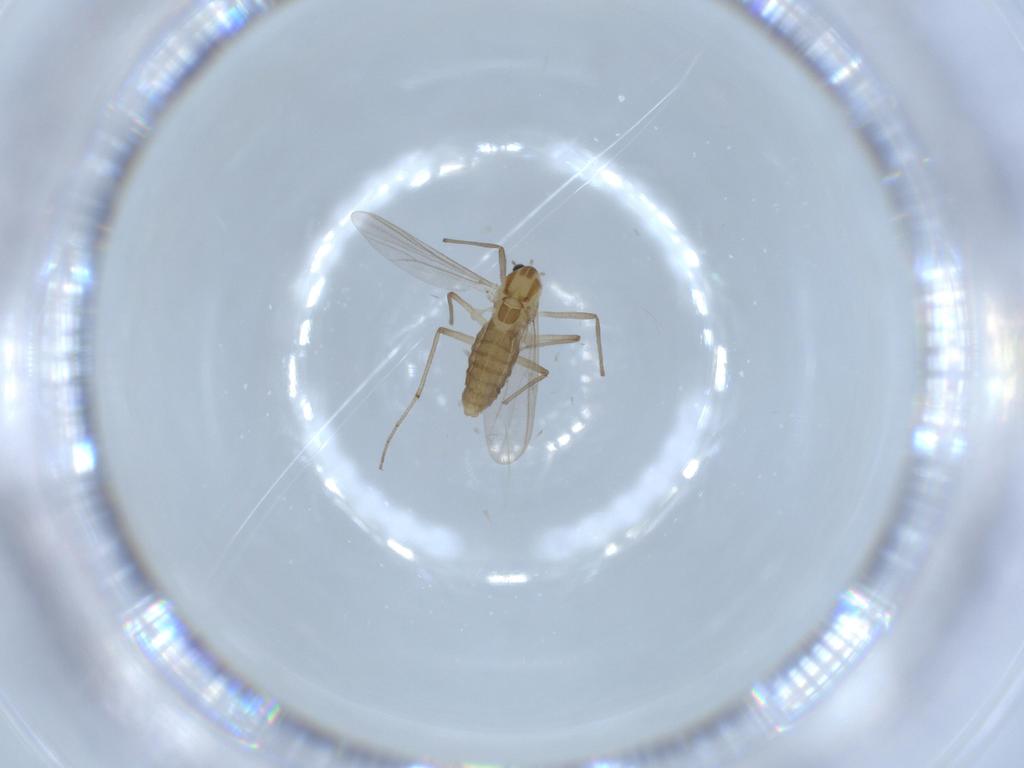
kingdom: Animalia
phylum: Arthropoda
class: Insecta
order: Diptera
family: Chironomidae
